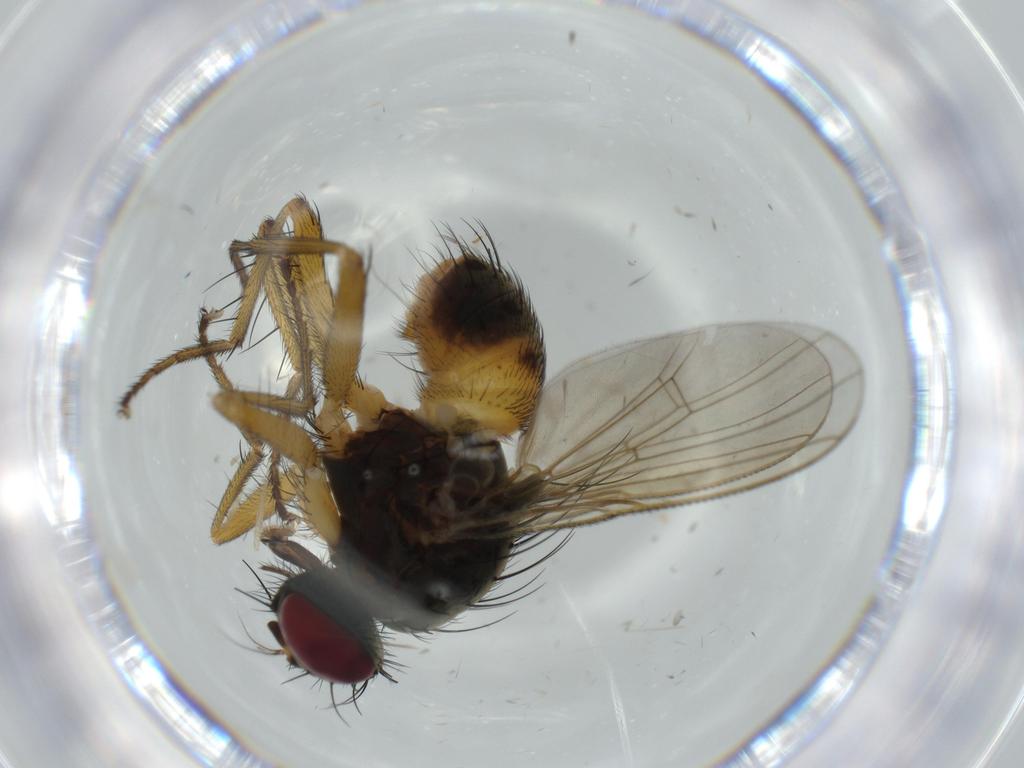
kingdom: Animalia
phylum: Arthropoda
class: Insecta
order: Diptera
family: Muscidae
